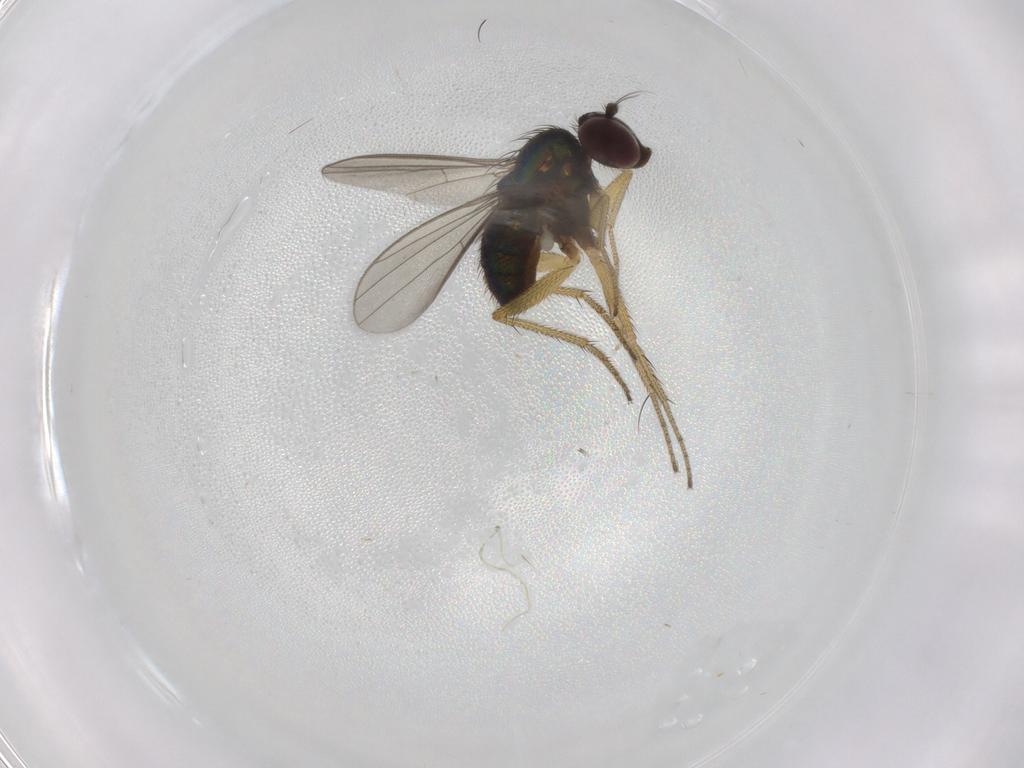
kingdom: Animalia
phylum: Arthropoda
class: Insecta
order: Diptera
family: Dolichopodidae
